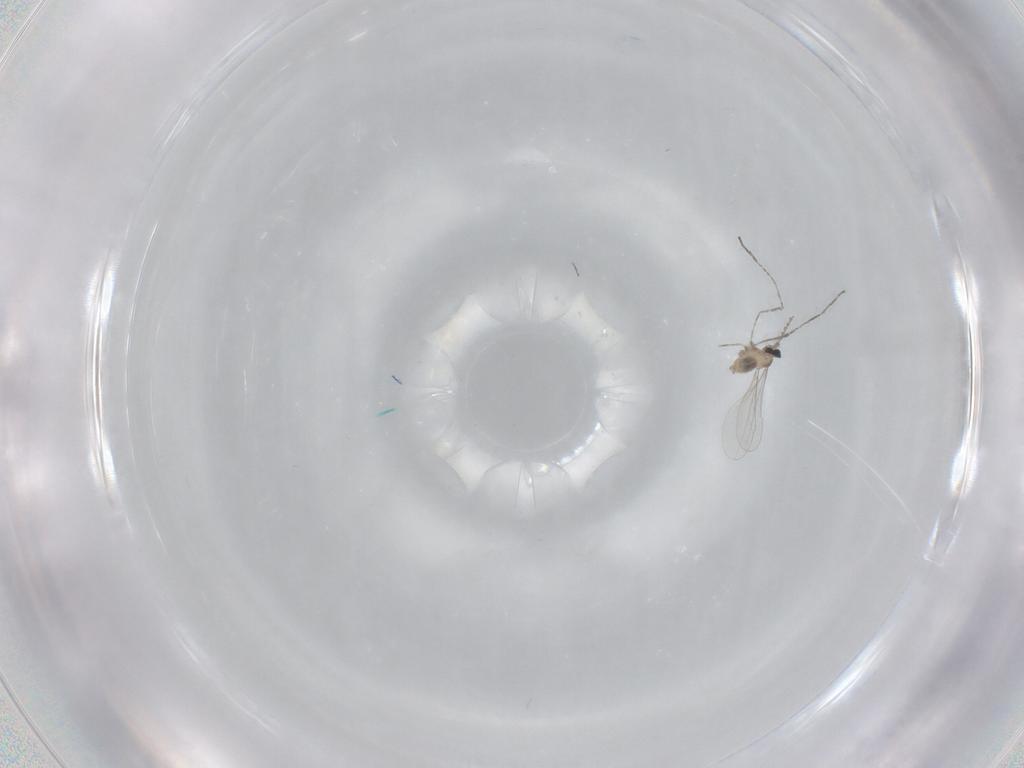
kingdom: Animalia
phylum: Arthropoda
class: Insecta
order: Diptera
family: Cecidomyiidae
